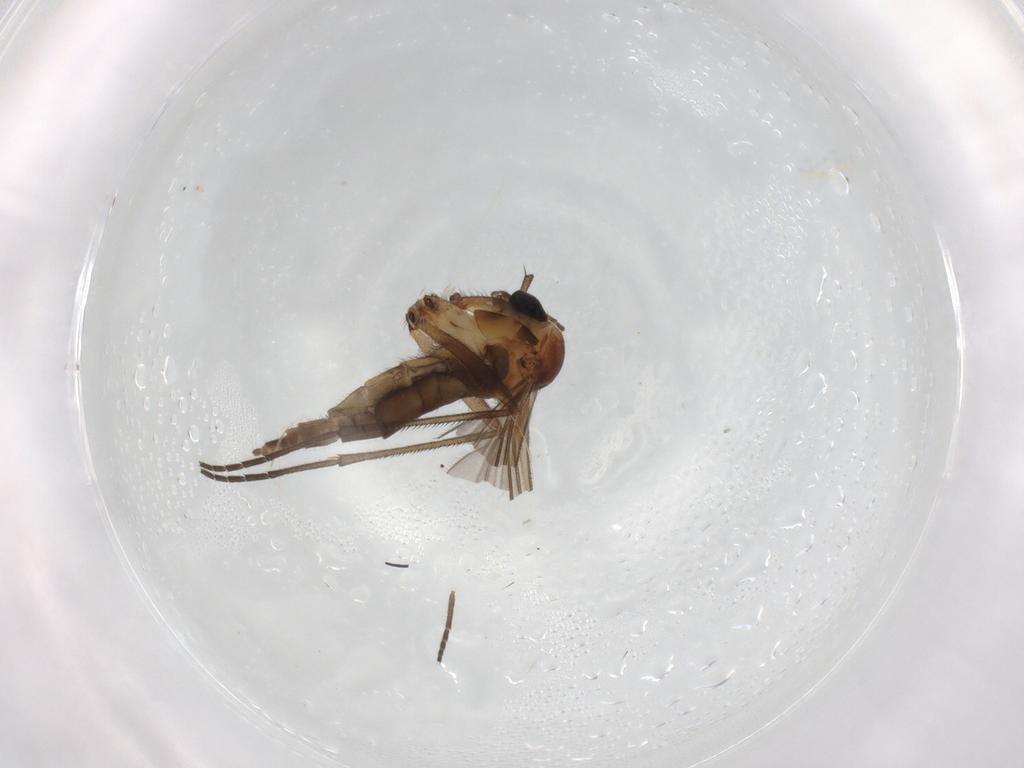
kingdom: Animalia
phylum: Arthropoda
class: Insecta
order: Diptera
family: Sciaridae
